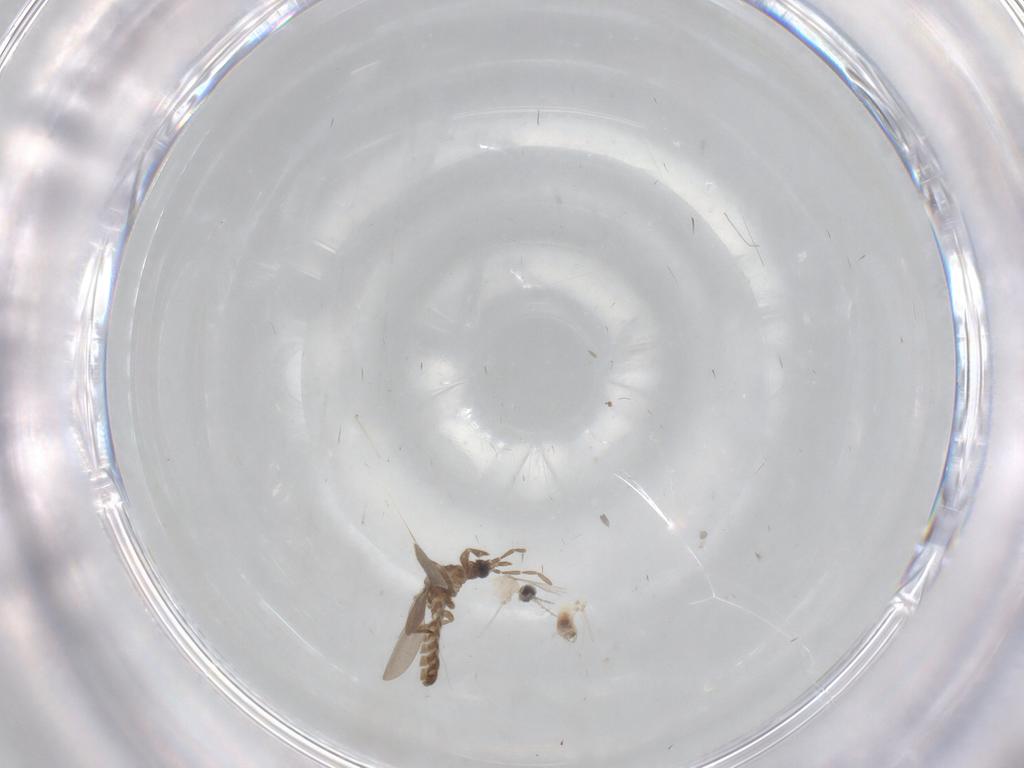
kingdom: Animalia
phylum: Arthropoda
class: Insecta
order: Diptera
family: Cecidomyiidae
